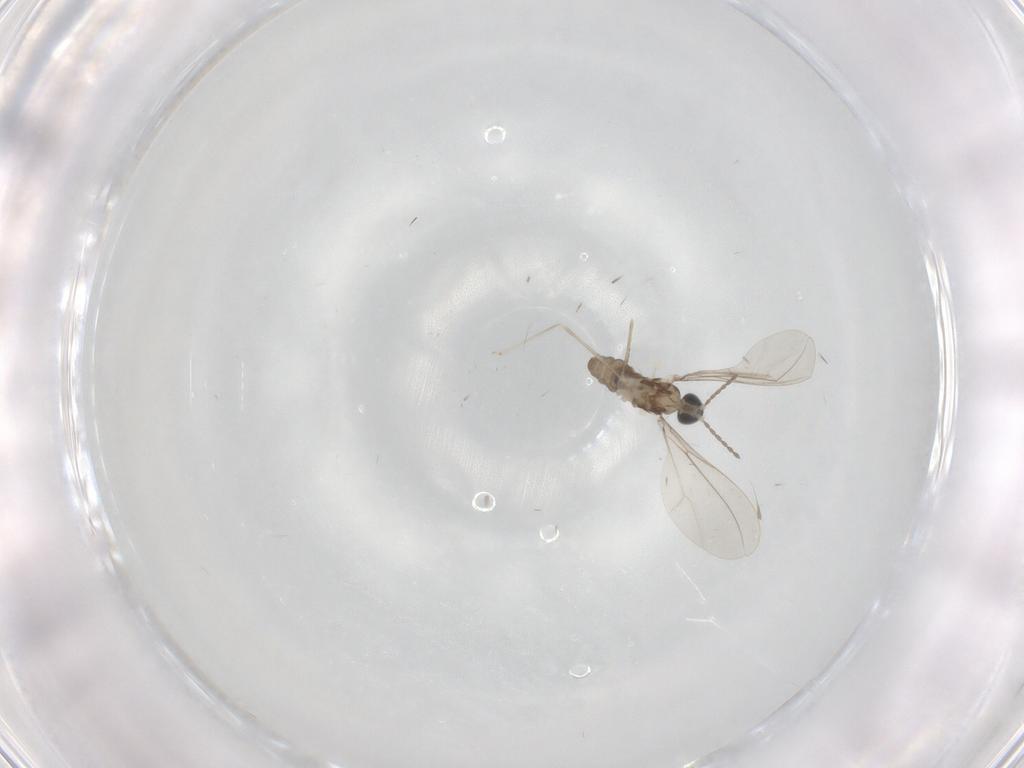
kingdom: Animalia
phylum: Arthropoda
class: Insecta
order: Diptera
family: Cecidomyiidae
